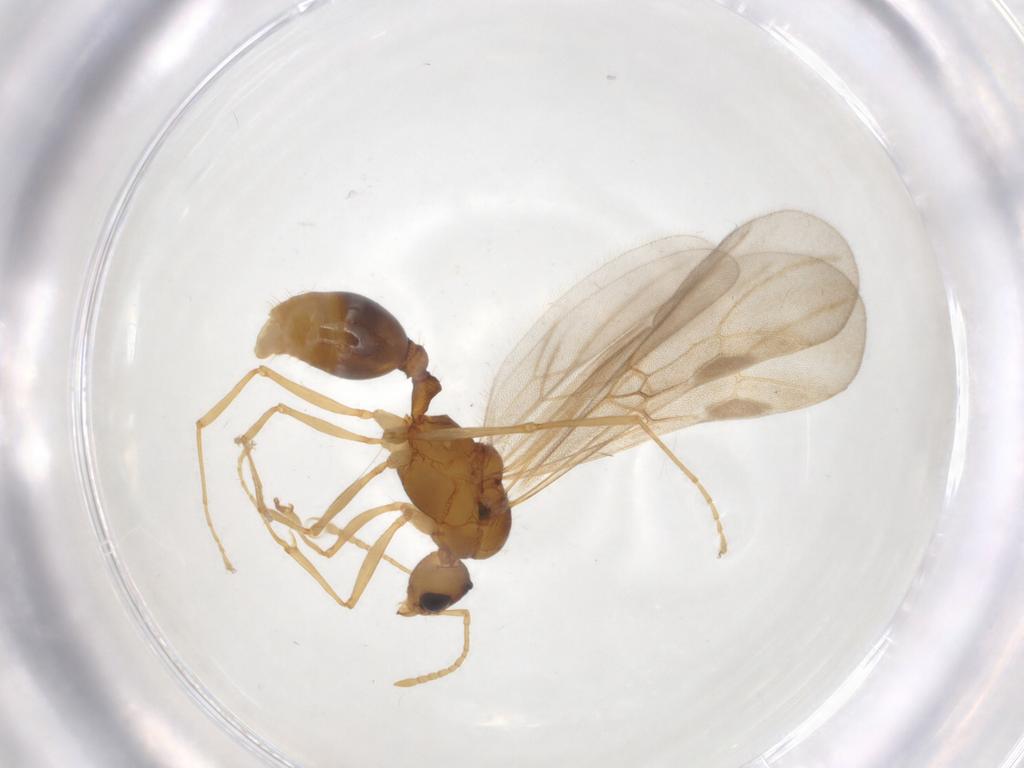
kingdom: Animalia
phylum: Arthropoda
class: Insecta
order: Hymenoptera
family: Formicidae
